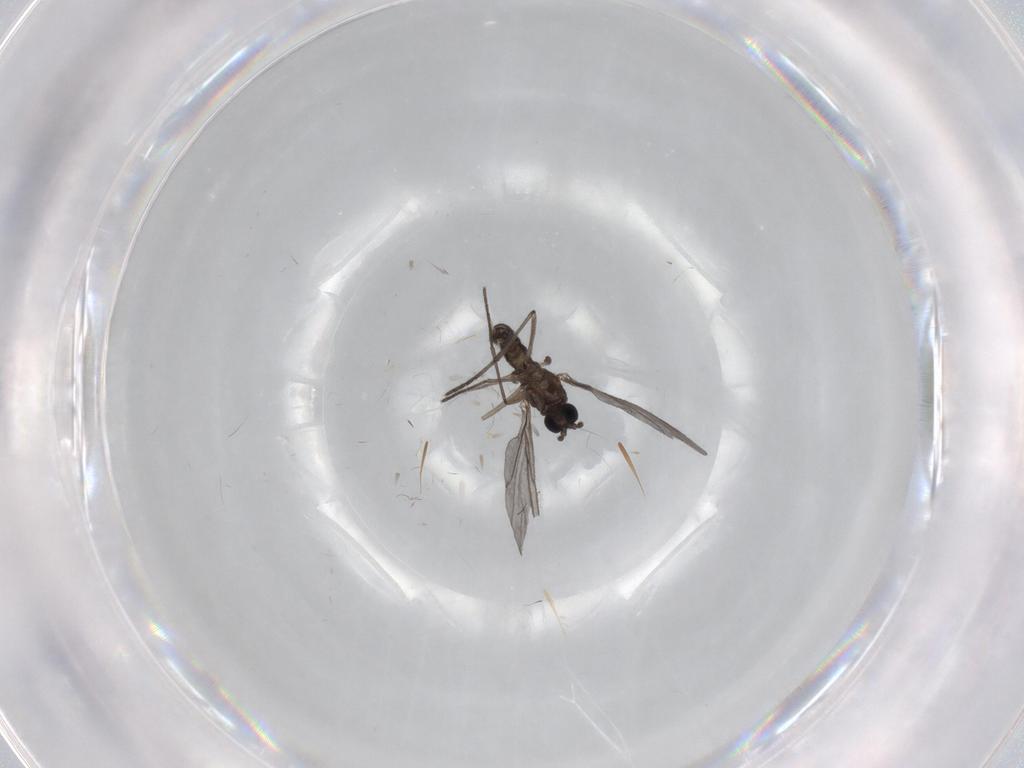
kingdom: Animalia
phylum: Arthropoda
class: Insecta
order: Diptera
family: Sciaridae
